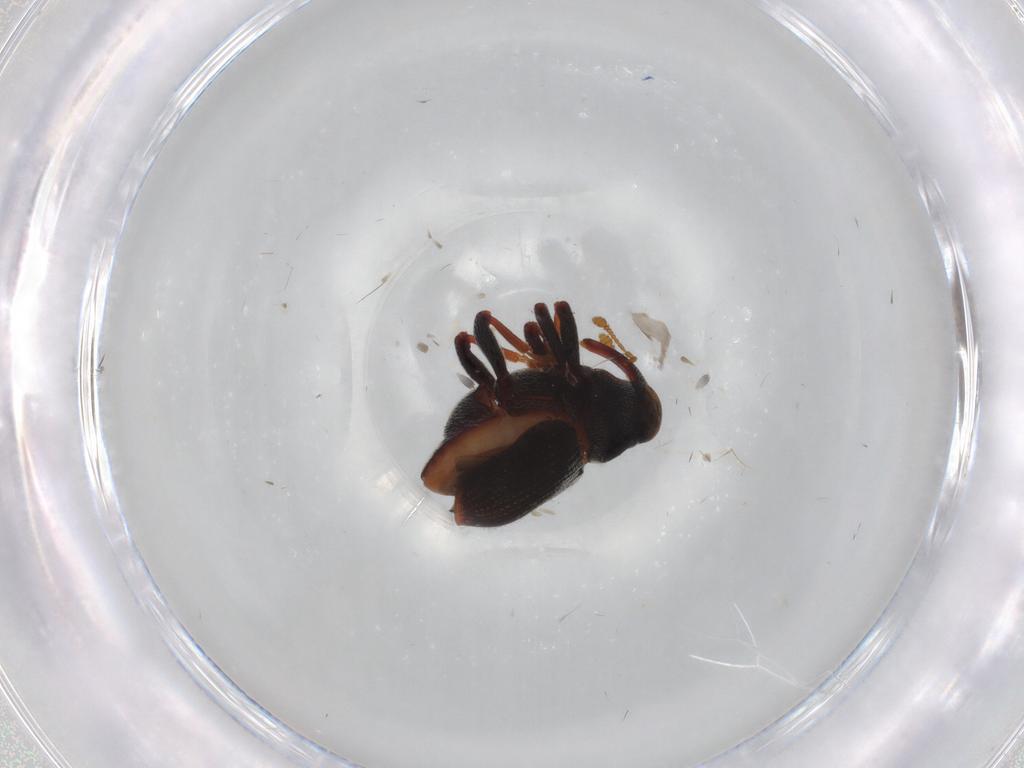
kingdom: Animalia
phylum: Arthropoda
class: Insecta
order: Coleoptera
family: Curculionidae
